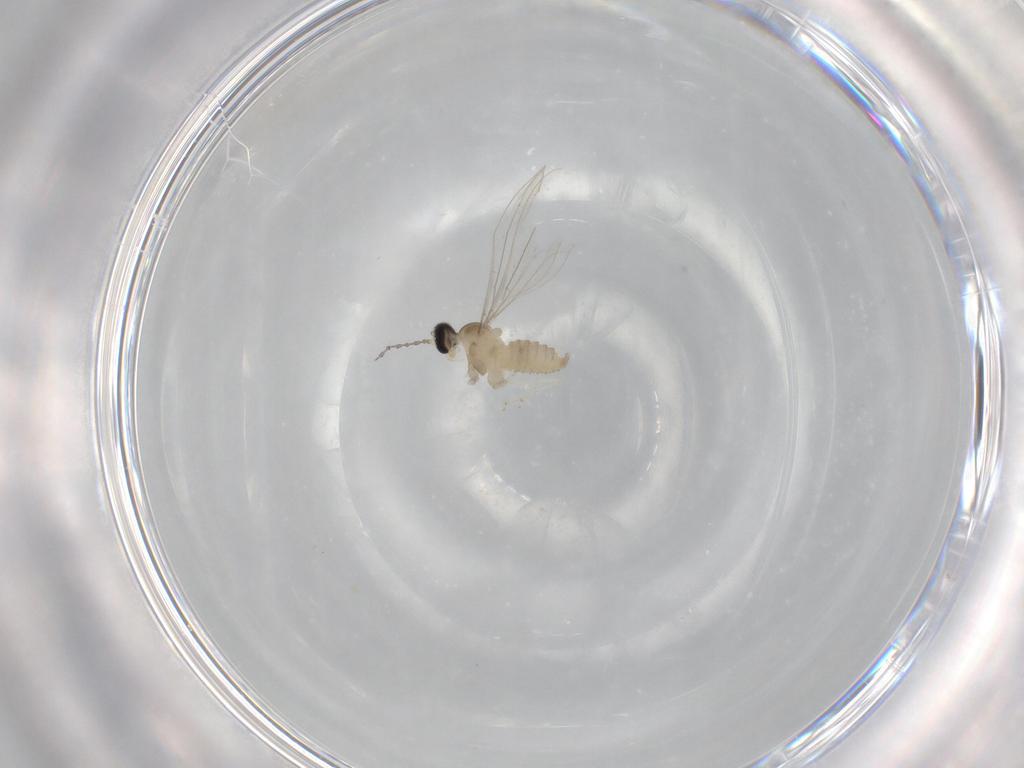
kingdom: Animalia
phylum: Arthropoda
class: Insecta
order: Diptera
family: Cecidomyiidae
